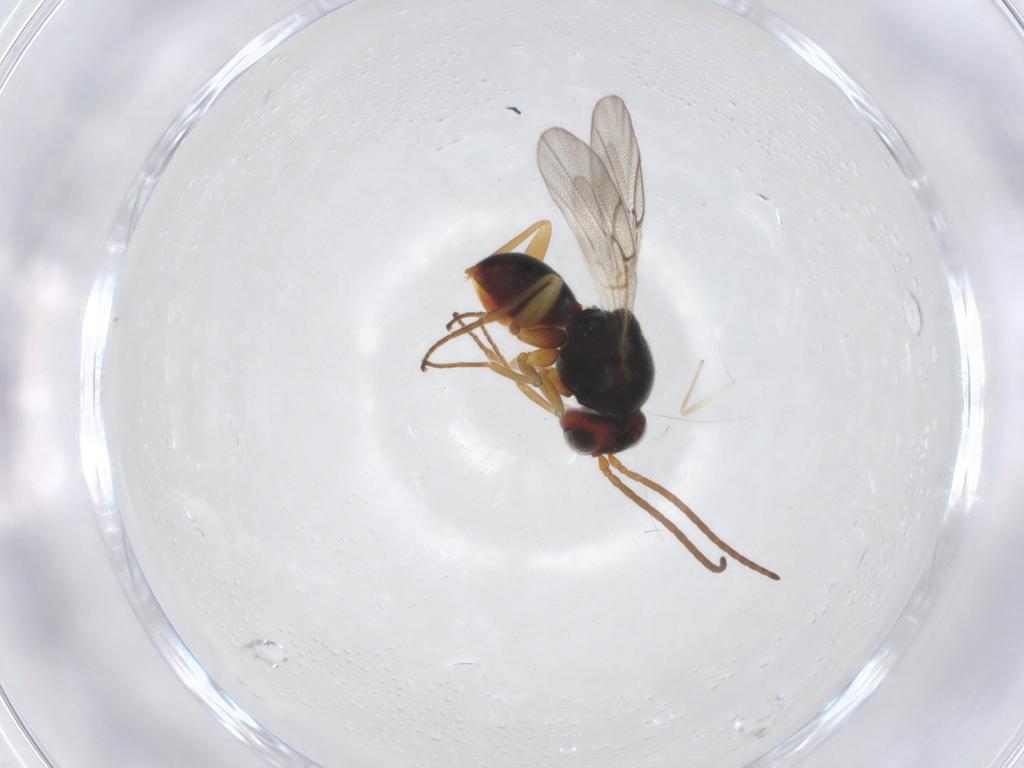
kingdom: Animalia
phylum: Arthropoda
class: Insecta
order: Hymenoptera
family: Figitidae
